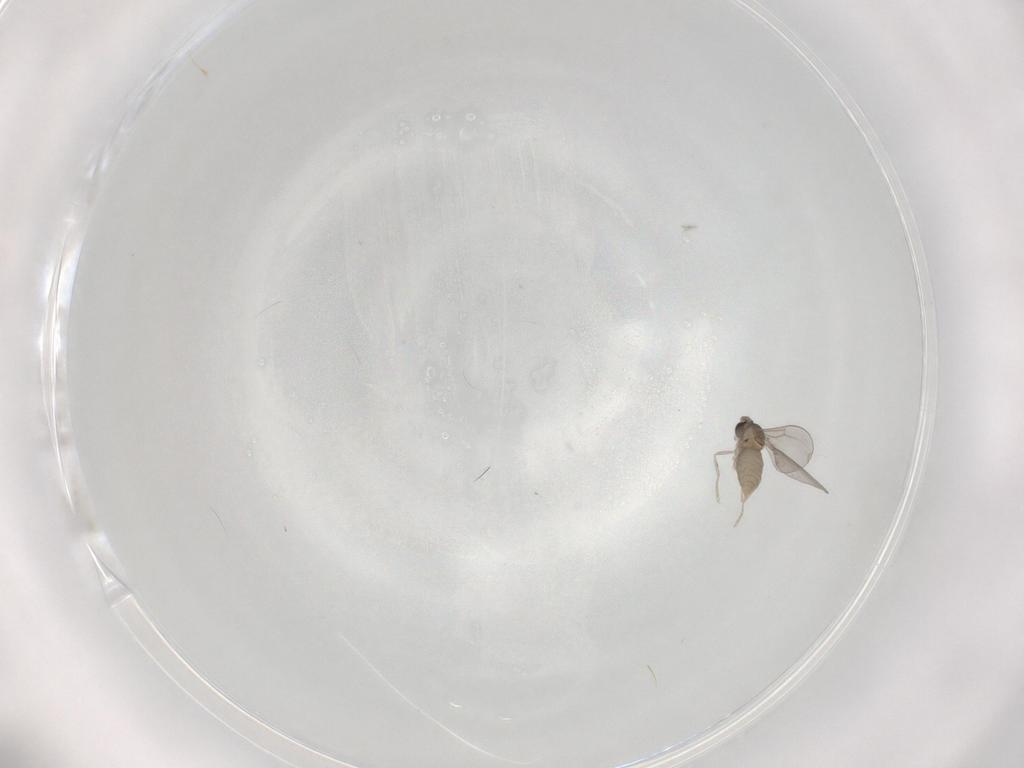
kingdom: Animalia
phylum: Arthropoda
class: Insecta
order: Diptera
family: Cecidomyiidae
